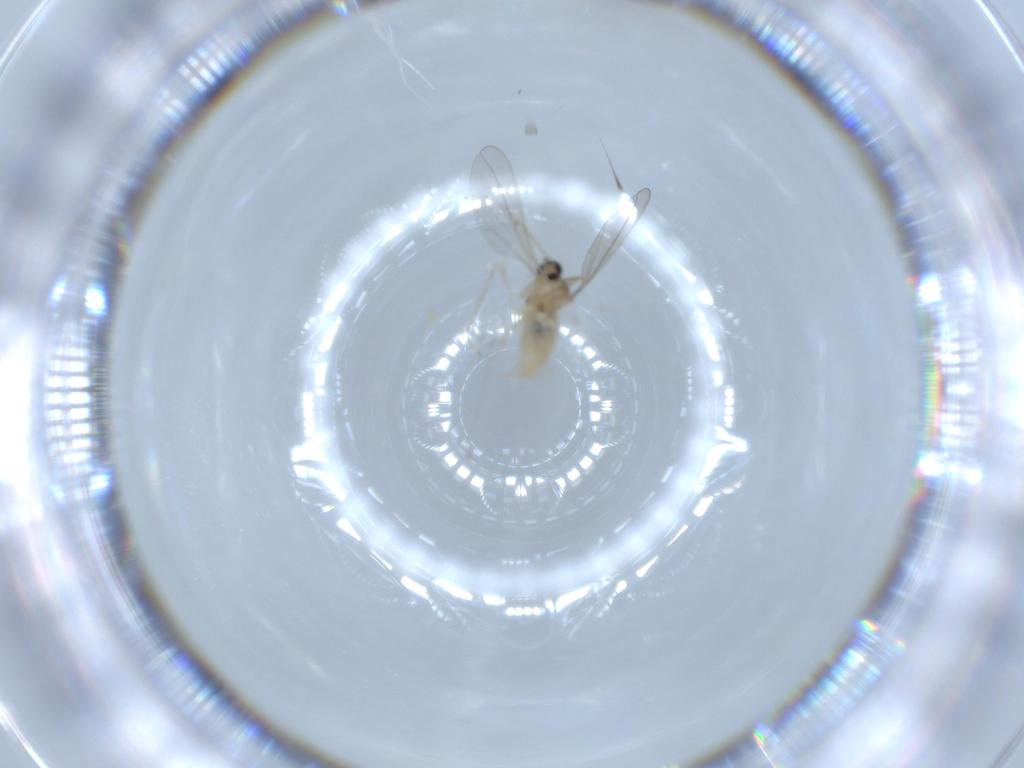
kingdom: Animalia
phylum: Arthropoda
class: Insecta
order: Diptera
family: Cecidomyiidae
